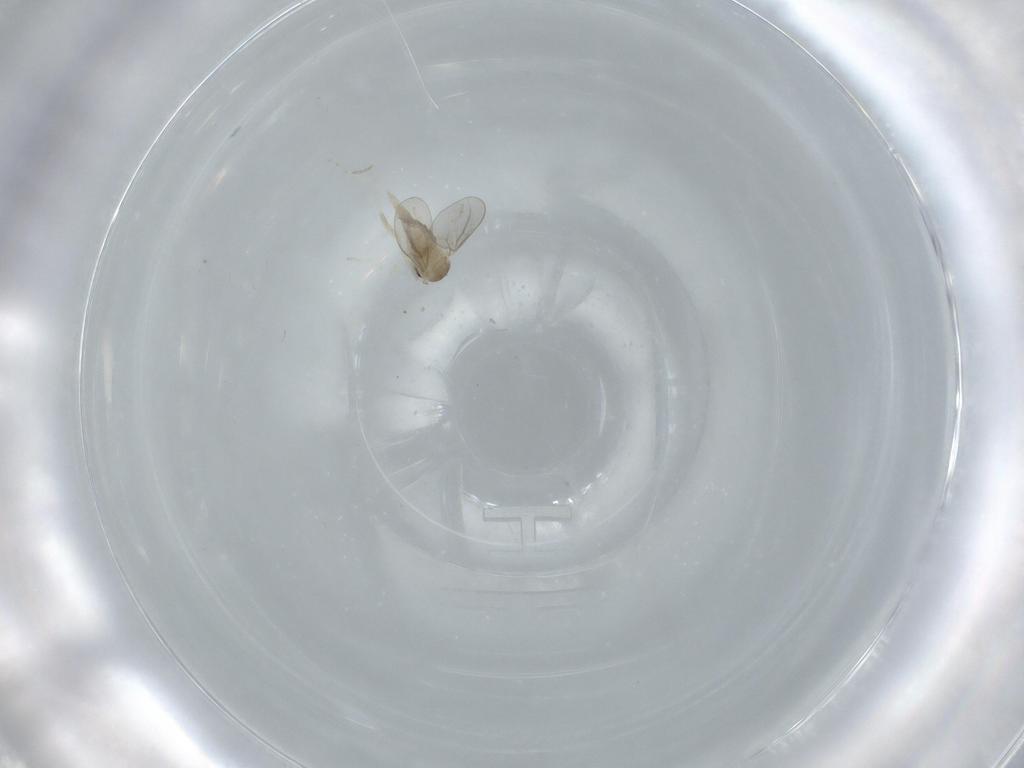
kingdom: Animalia
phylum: Arthropoda
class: Insecta
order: Diptera
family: Cecidomyiidae
